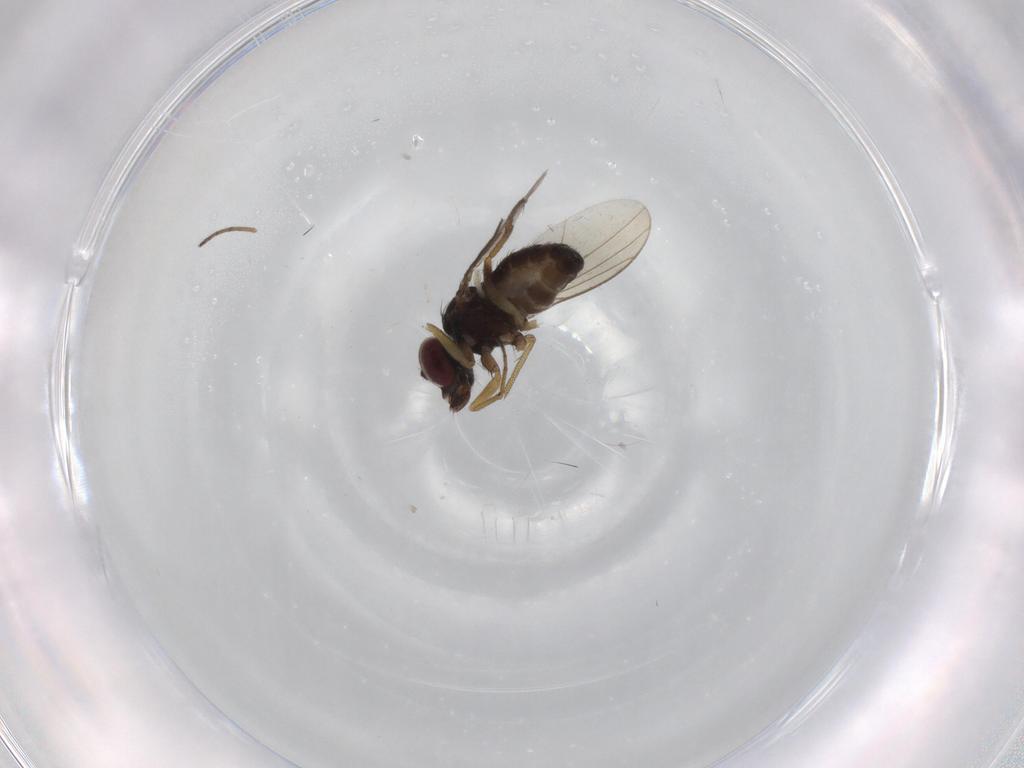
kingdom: Animalia
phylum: Arthropoda
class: Insecta
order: Diptera
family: Dolichopodidae
